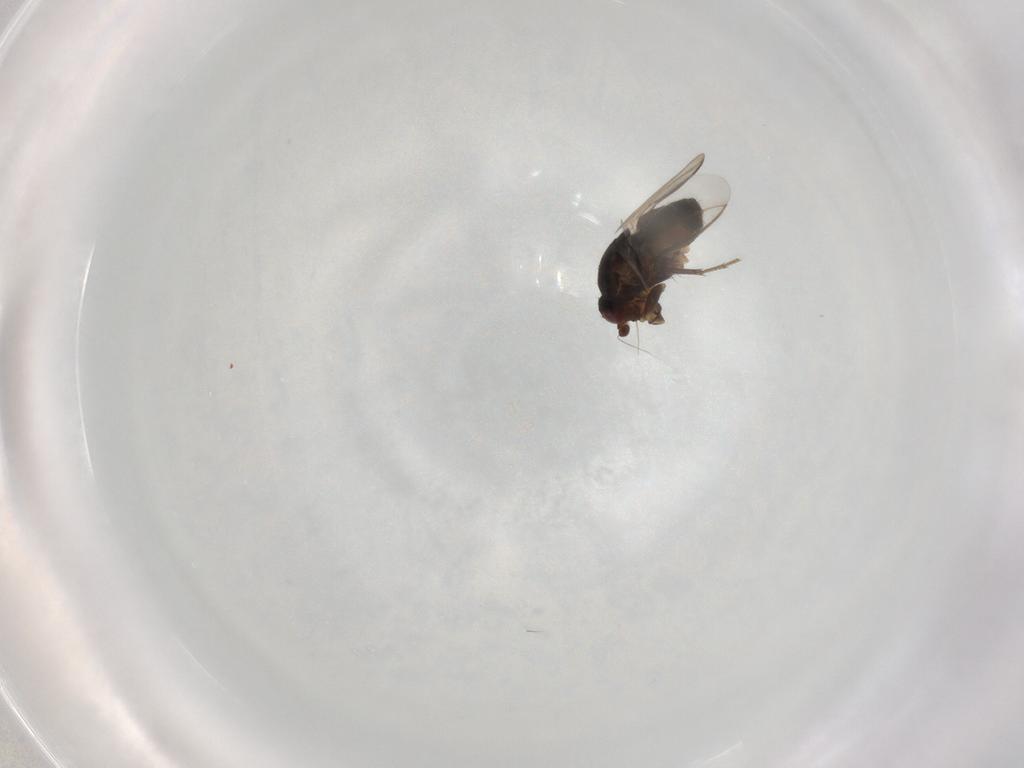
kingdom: Animalia
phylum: Arthropoda
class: Insecta
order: Diptera
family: Sphaeroceridae
